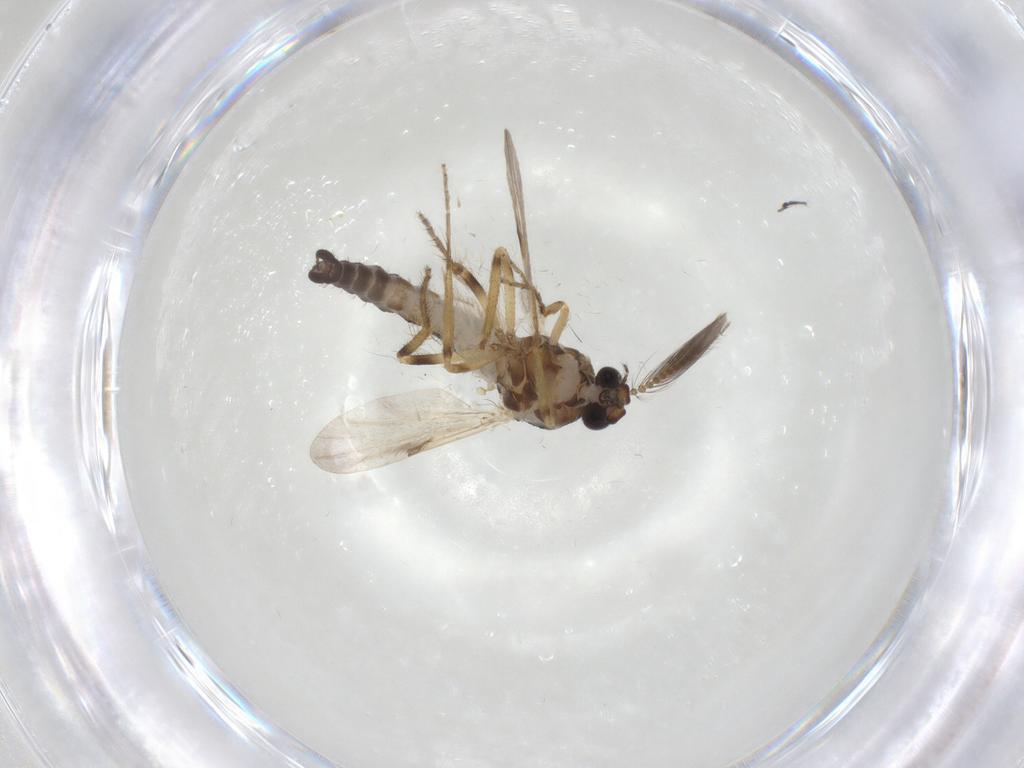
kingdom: Animalia
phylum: Arthropoda
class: Insecta
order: Diptera
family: Ceratopogonidae
